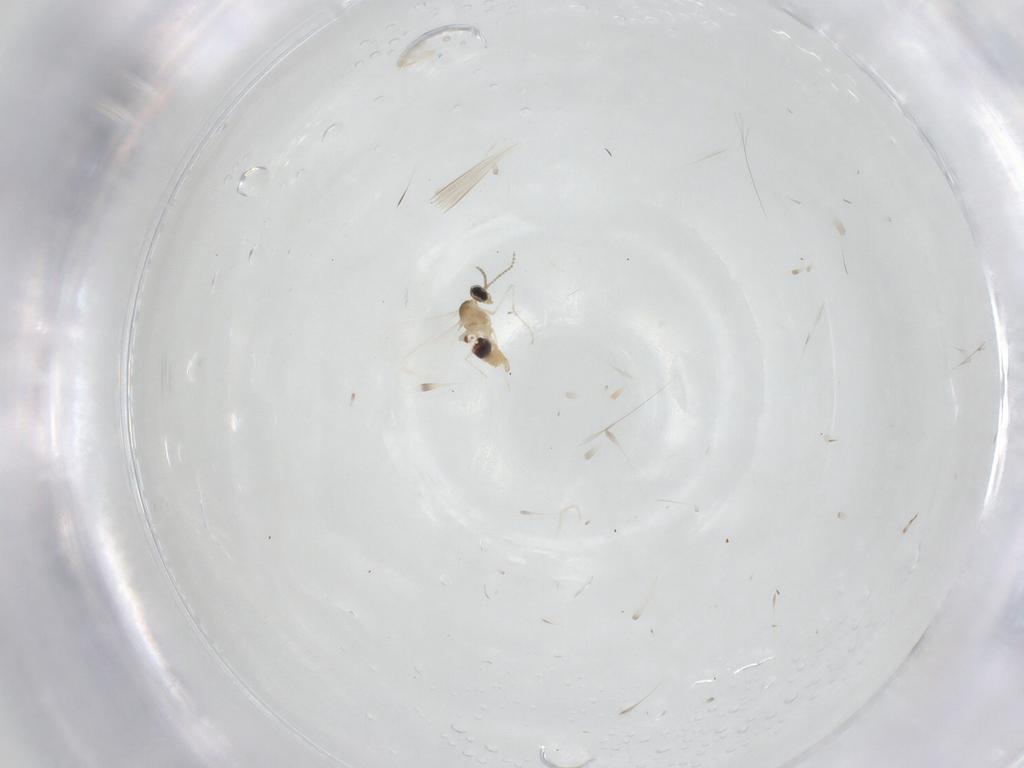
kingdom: Animalia
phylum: Arthropoda
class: Insecta
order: Diptera
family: Cecidomyiidae
